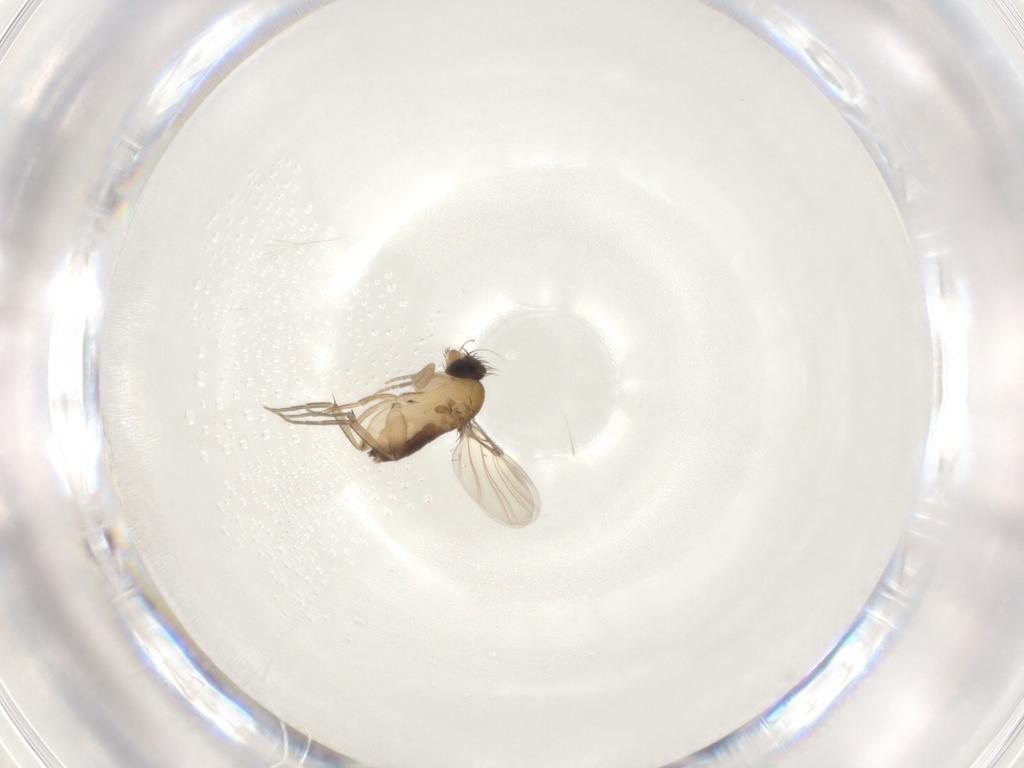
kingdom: Animalia
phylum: Arthropoda
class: Insecta
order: Diptera
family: Phoridae
